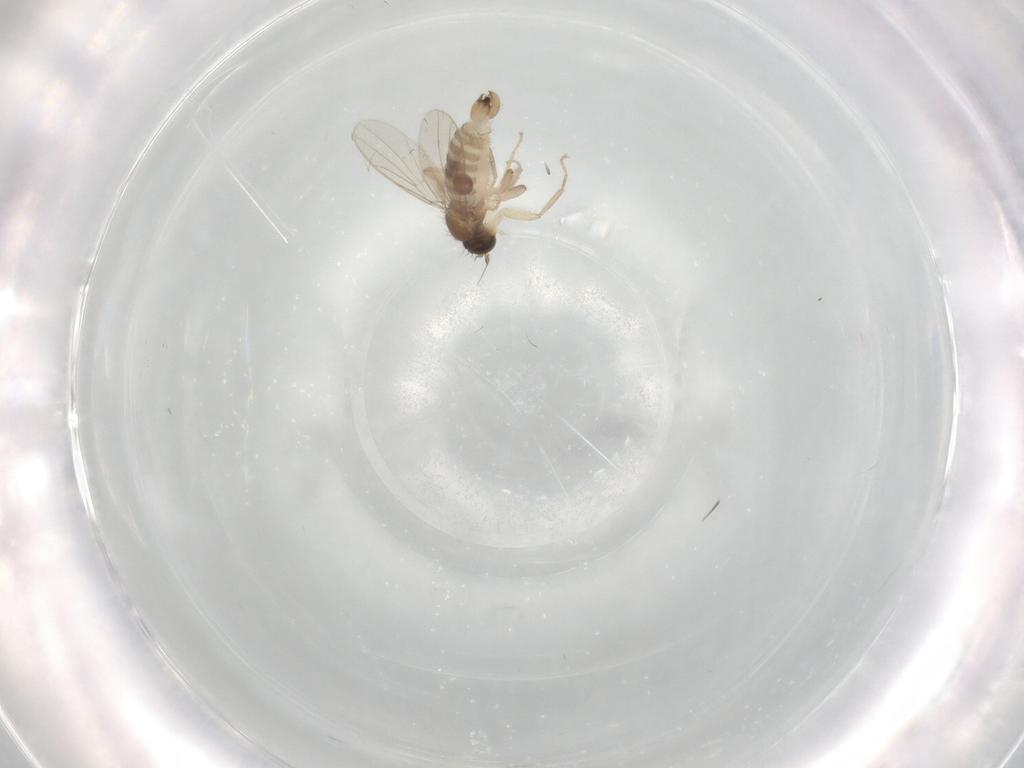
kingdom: Animalia
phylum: Arthropoda
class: Insecta
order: Diptera
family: Hybotidae
